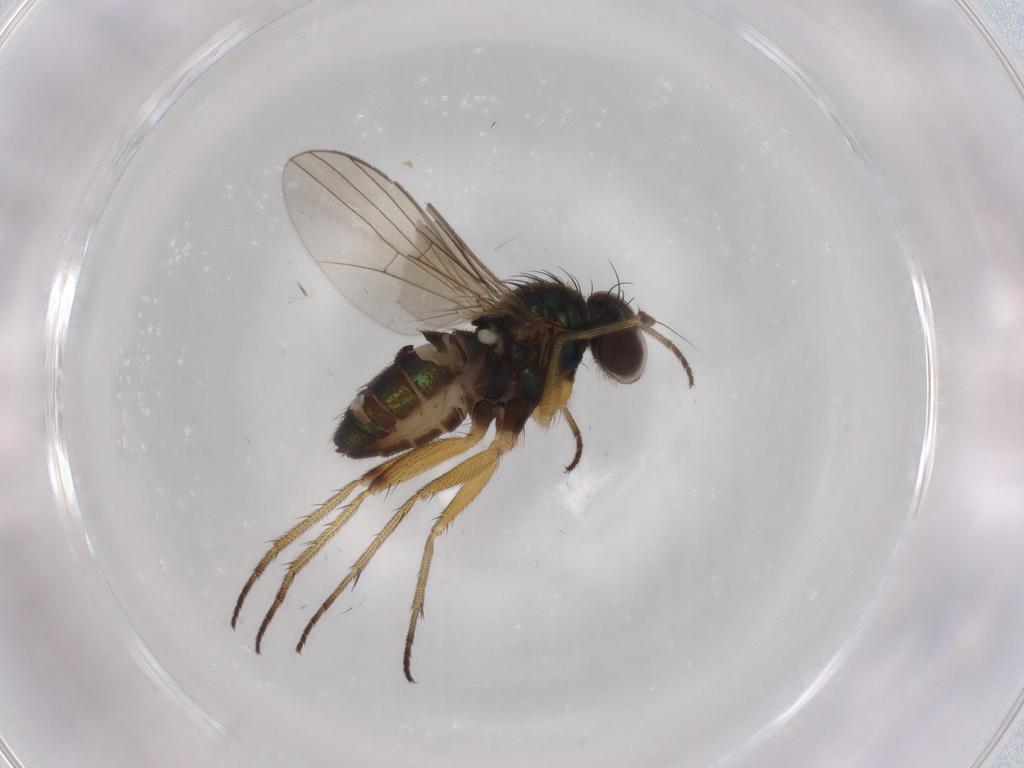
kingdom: Animalia
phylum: Arthropoda
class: Insecta
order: Diptera
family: Dolichopodidae
